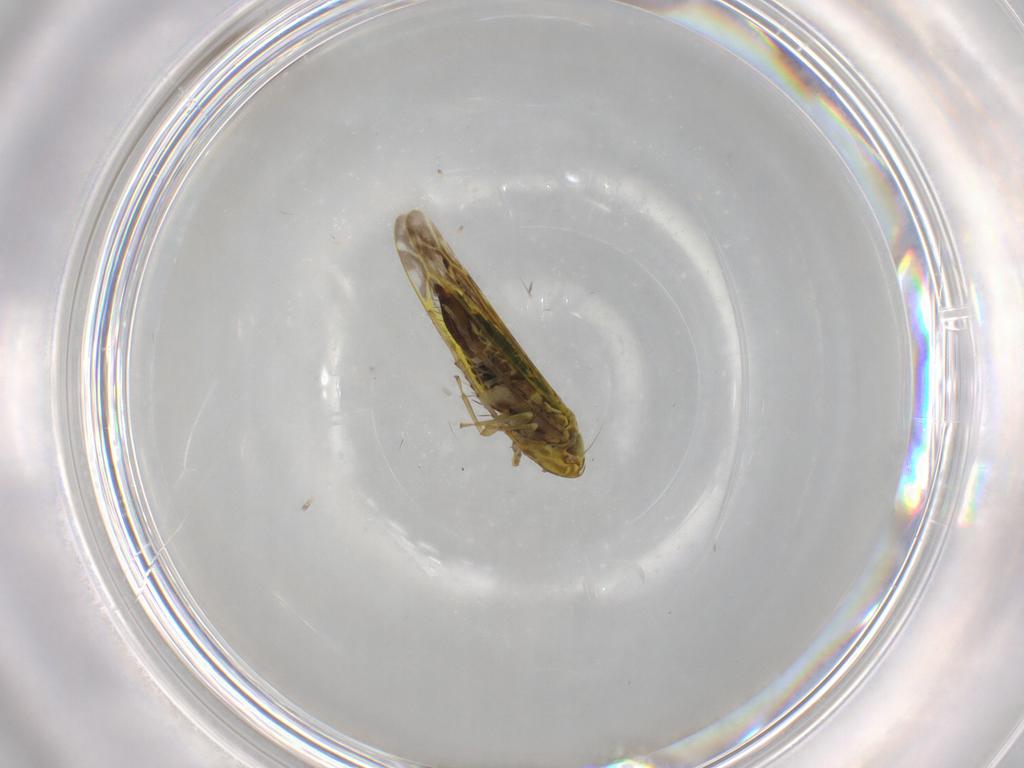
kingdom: Animalia
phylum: Arthropoda
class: Insecta
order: Hemiptera
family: Cicadellidae
